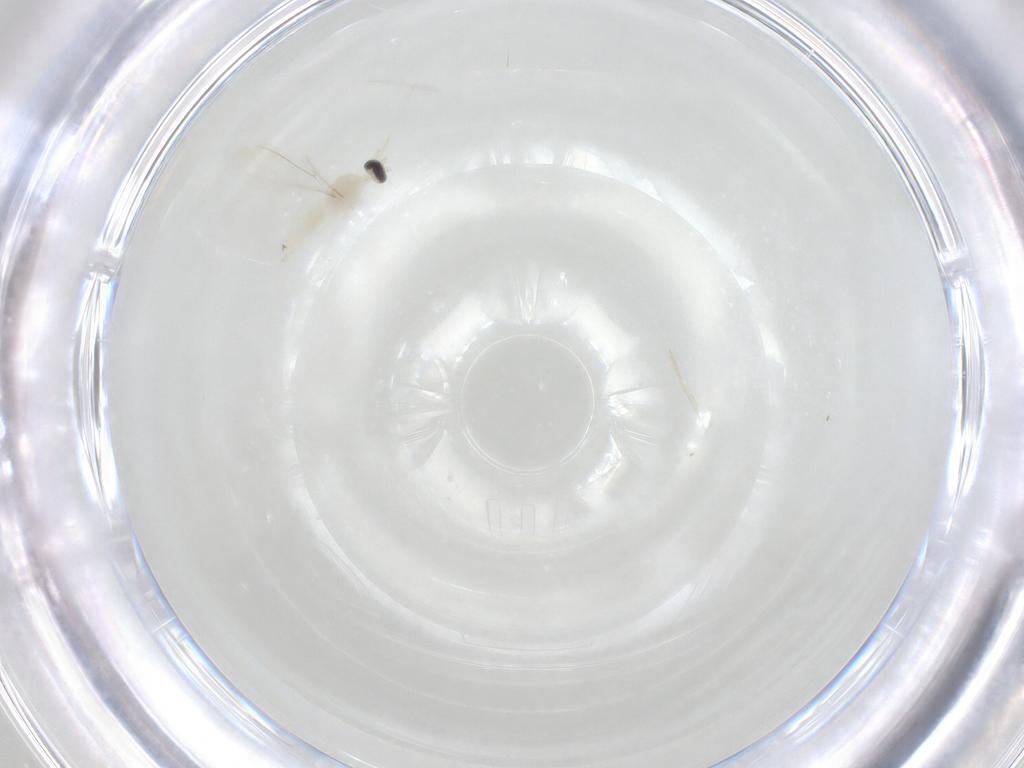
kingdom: Animalia
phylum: Arthropoda
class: Insecta
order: Diptera
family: Cecidomyiidae
